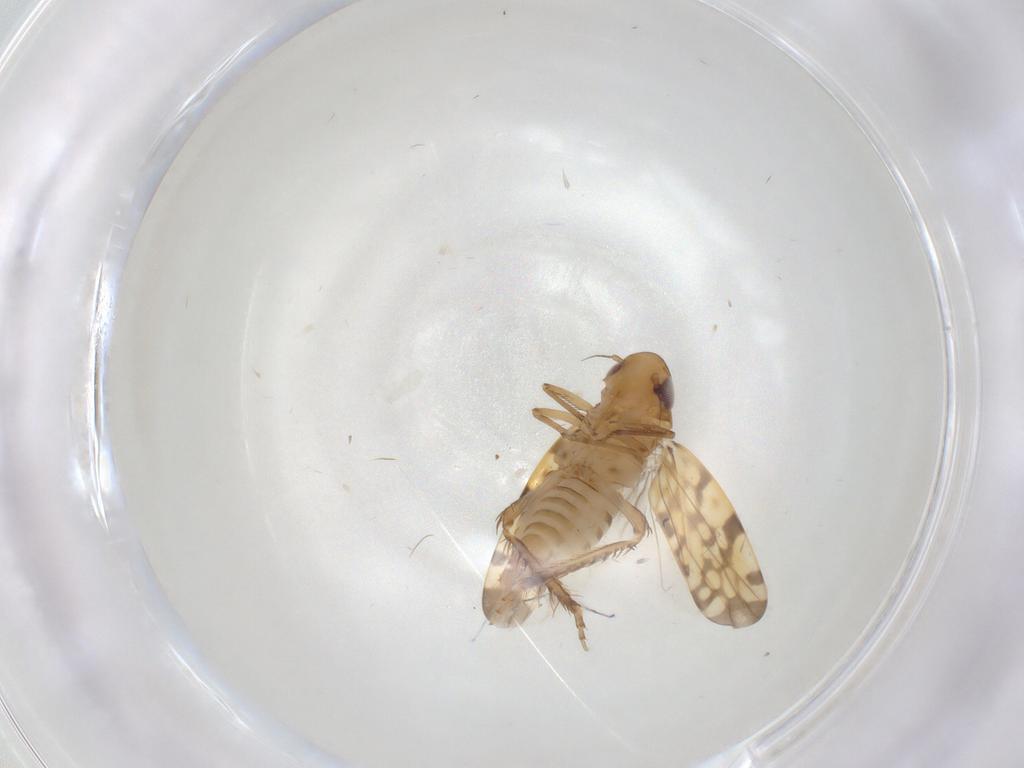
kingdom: Animalia
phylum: Arthropoda
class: Insecta
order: Hemiptera
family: Cicadellidae
